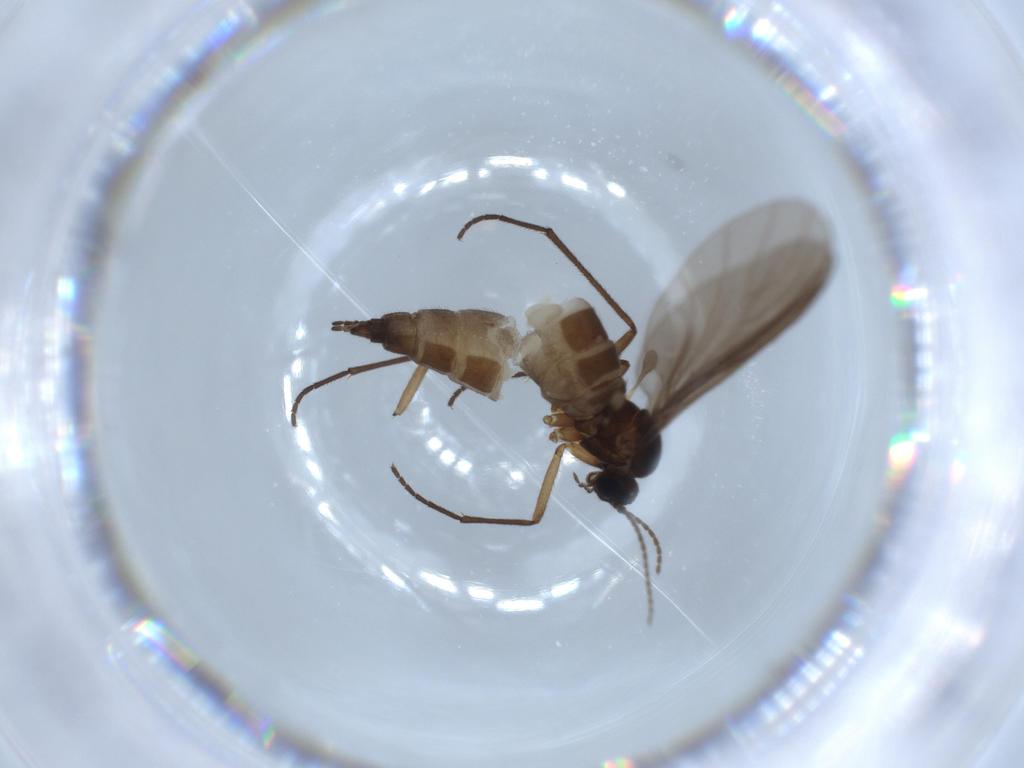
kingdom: Animalia
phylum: Arthropoda
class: Insecta
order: Diptera
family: Sciaridae
